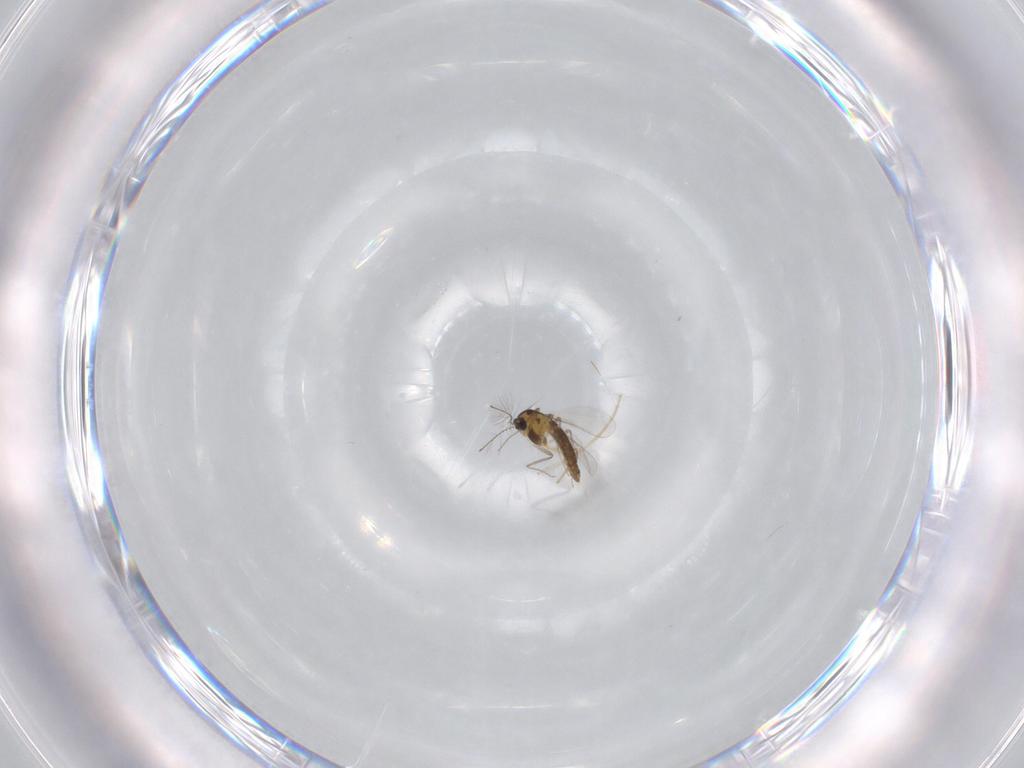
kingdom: Animalia
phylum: Arthropoda
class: Insecta
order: Diptera
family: Chironomidae
